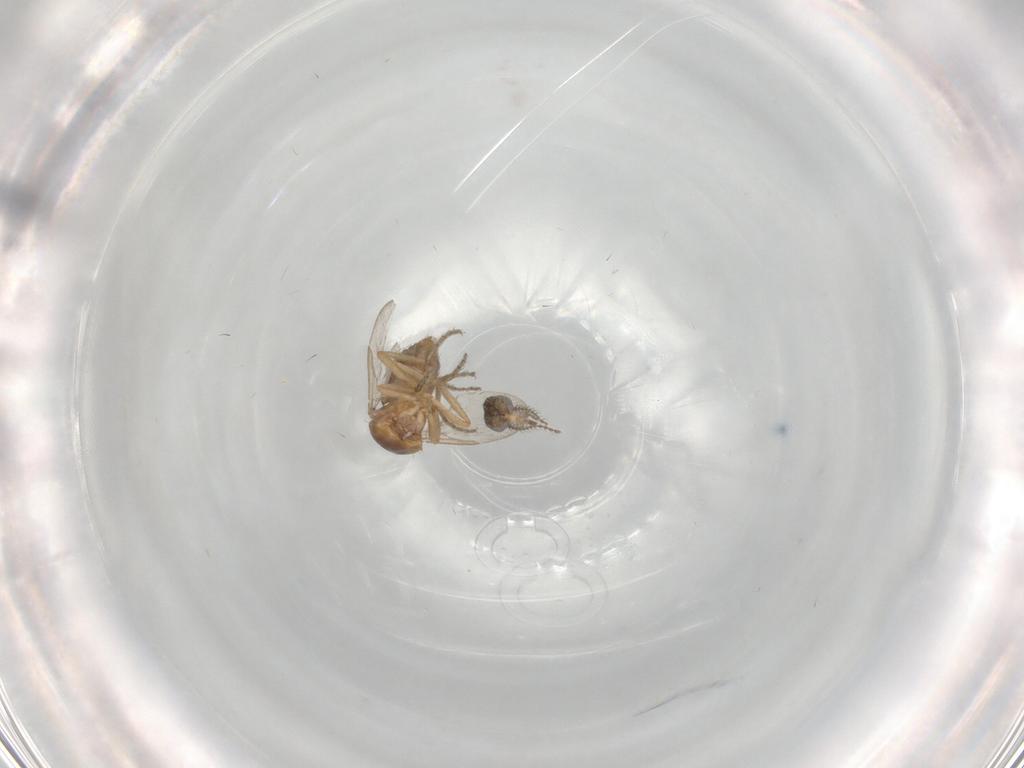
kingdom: Animalia
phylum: Arthropoda
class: Insecta
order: Diptera
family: Ceratopogonidae
